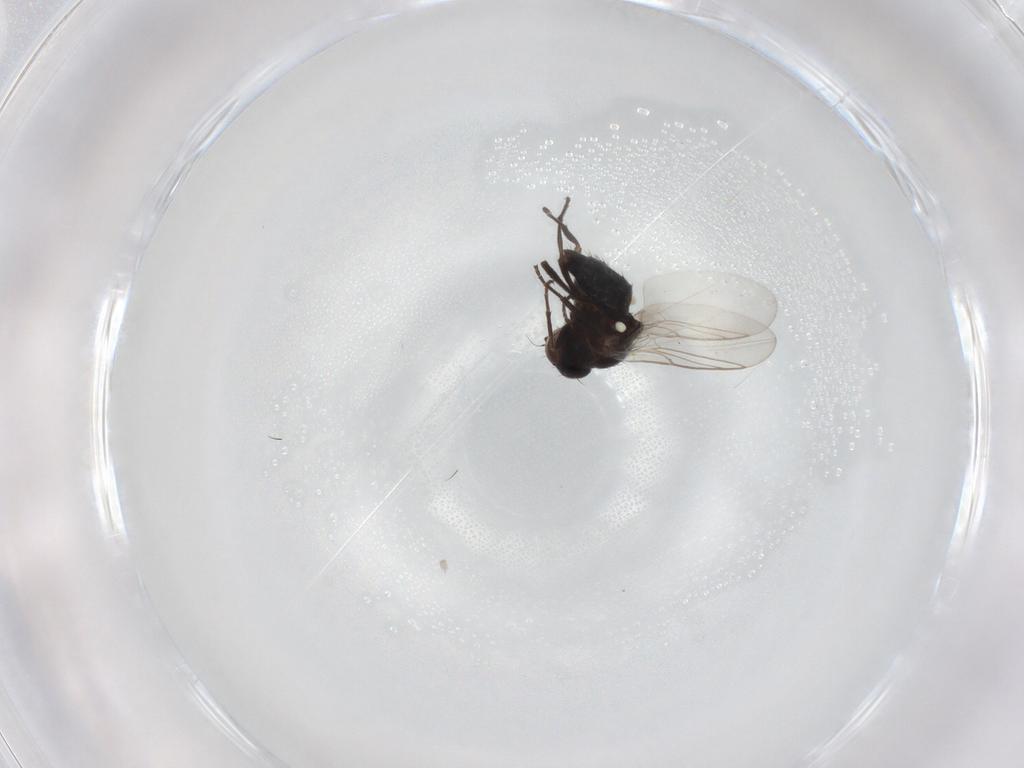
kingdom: Animalia
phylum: Arthropoda
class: Insecta
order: Diptera
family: Agromyzidae
